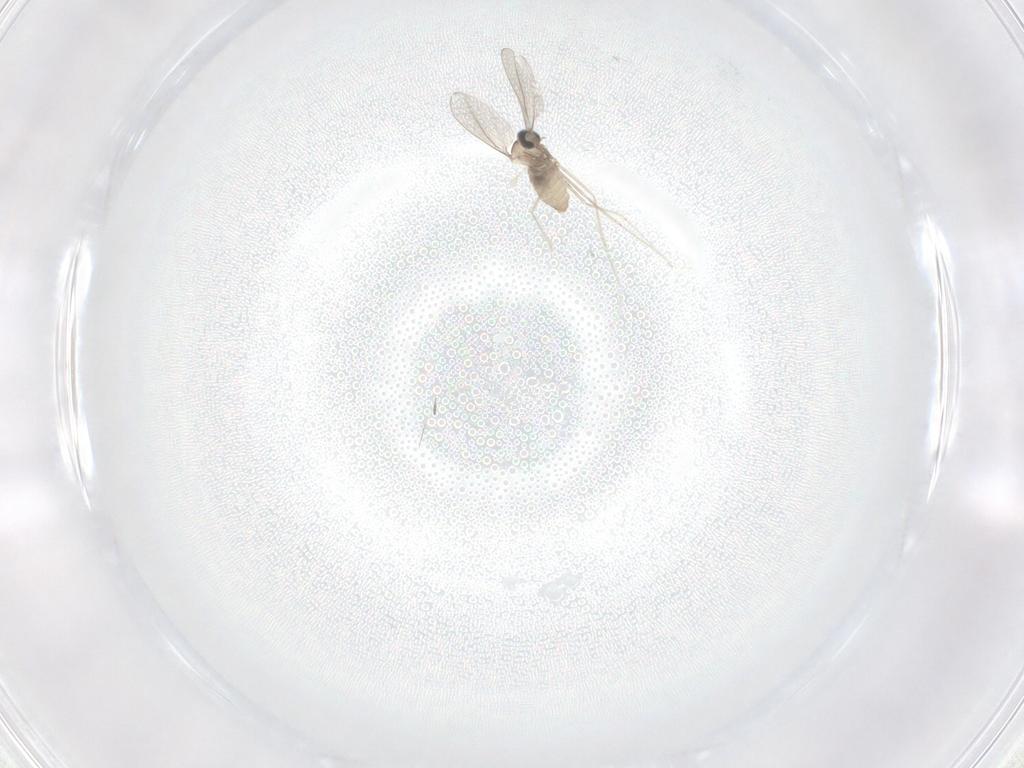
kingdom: Animalia
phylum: Arthropoda
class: Insecta
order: Diptera
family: Cecidomyiidae
